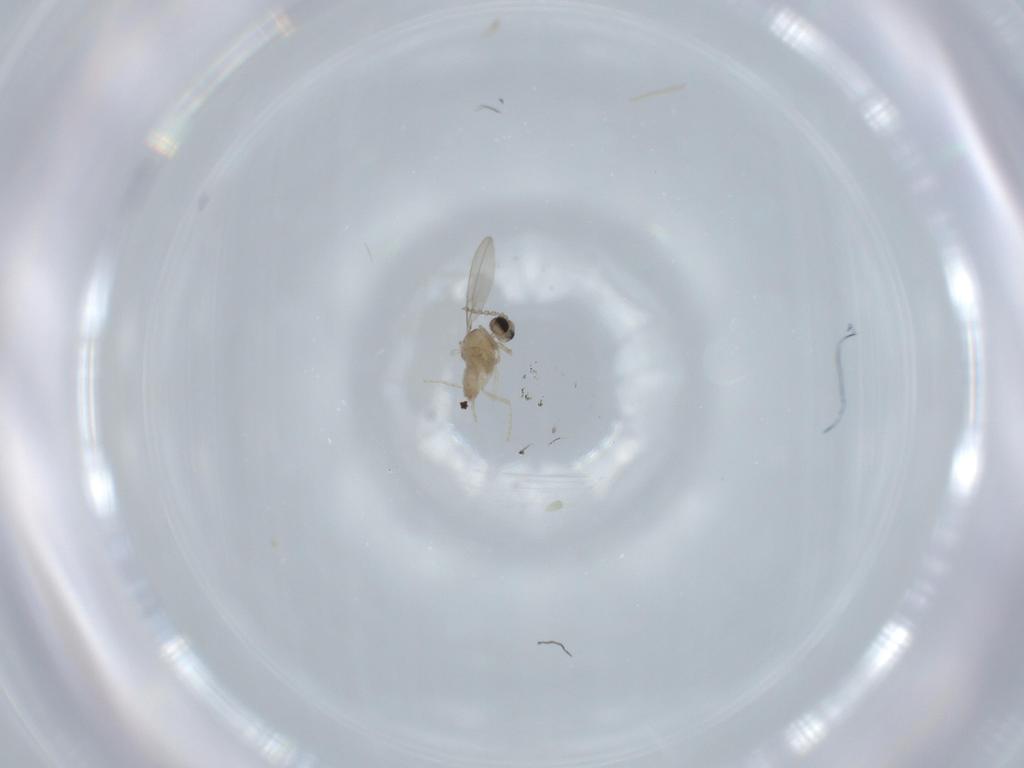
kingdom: Animalia
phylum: Arthropoda
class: Insecta
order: Diptera
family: Cecidomyiidae
